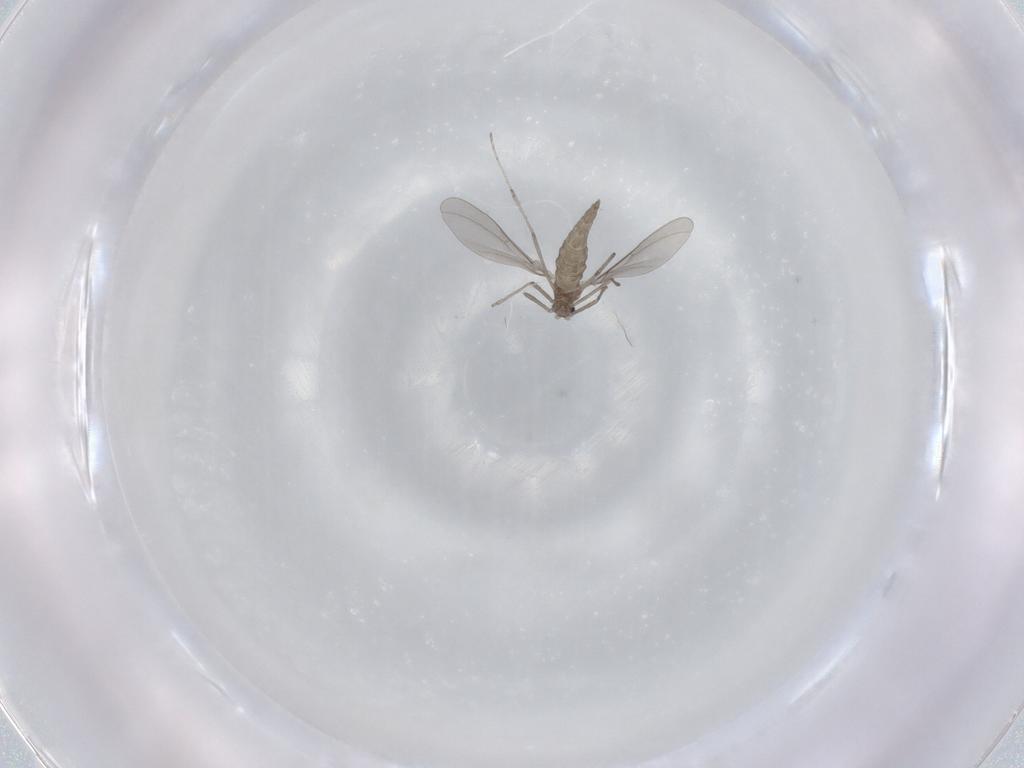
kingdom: Animalia
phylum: Arthropoda
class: Insecta
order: Diptera
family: Cecidomyiidae
